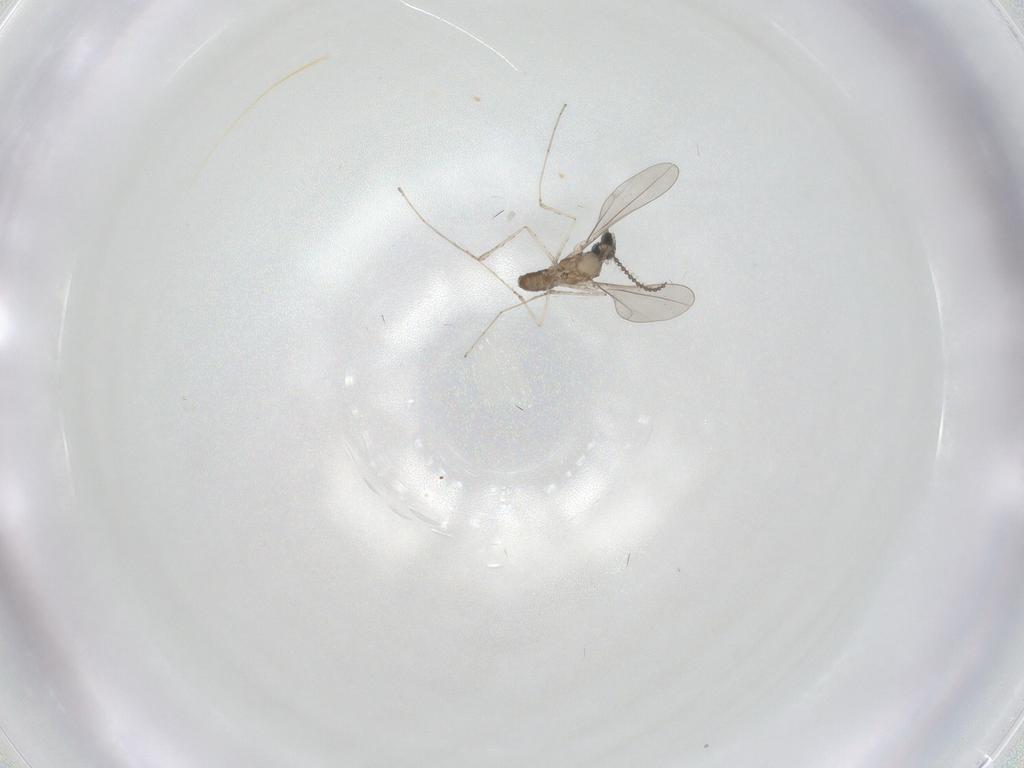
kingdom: Animalia
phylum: Arthropoda
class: Insecta
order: Diptera
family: Cecidomyiidae
